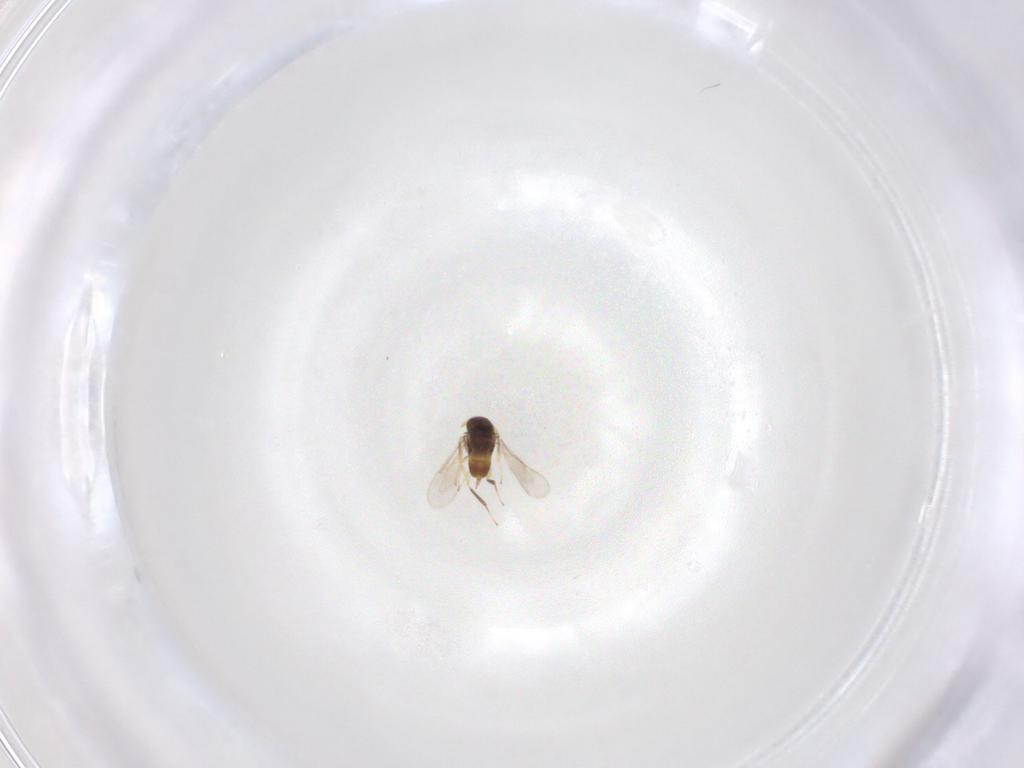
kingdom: Animalia
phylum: Arthropoda
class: Insecta
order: Hymenoptera
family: Aphelinidae
